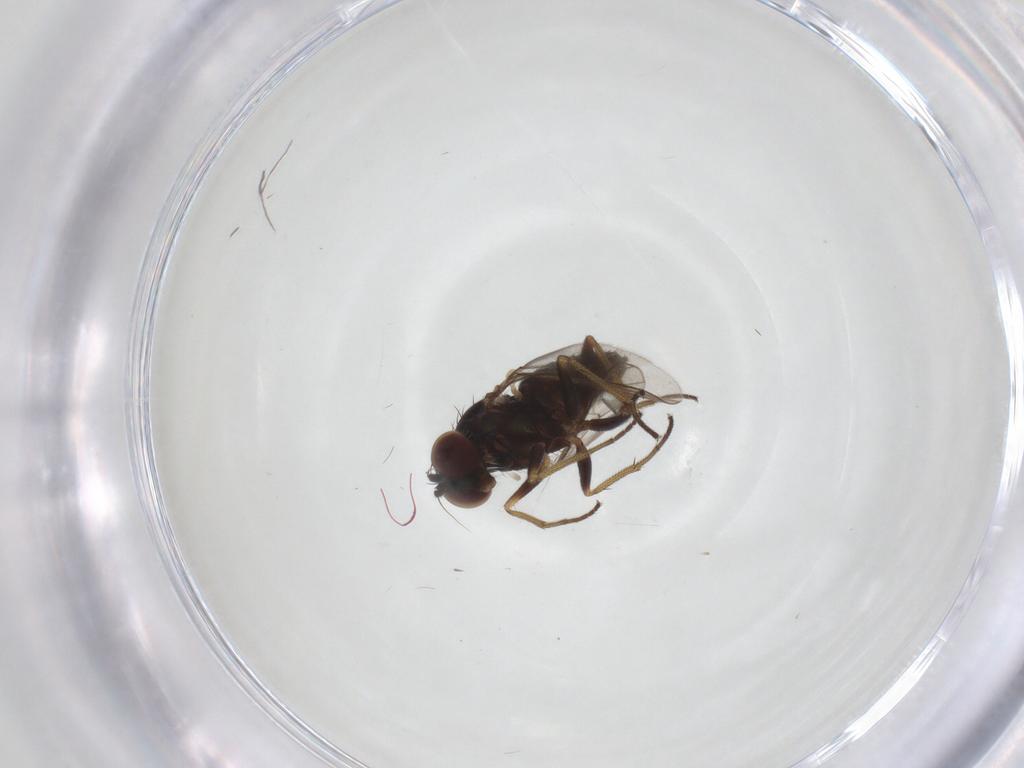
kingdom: Animalia
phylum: Arthropoda
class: Insecta
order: Diptera
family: Dolichopodidae
